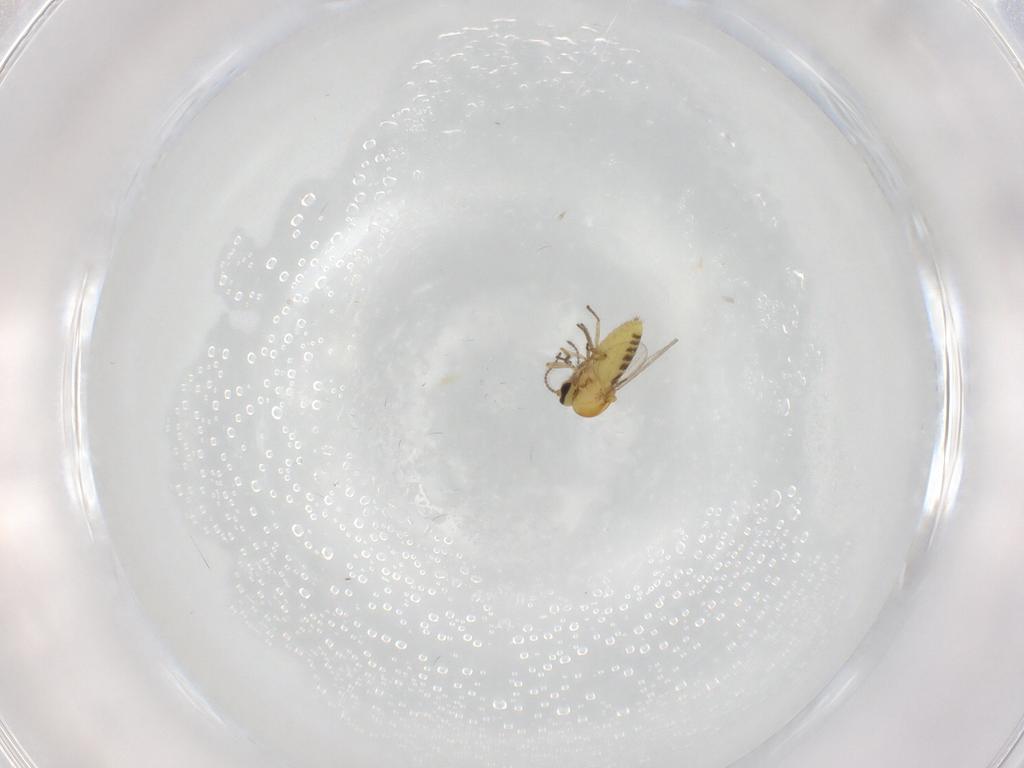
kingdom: Animalia
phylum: Arthropoda
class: Insecta
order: Diptera
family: Ceratopogonidae
